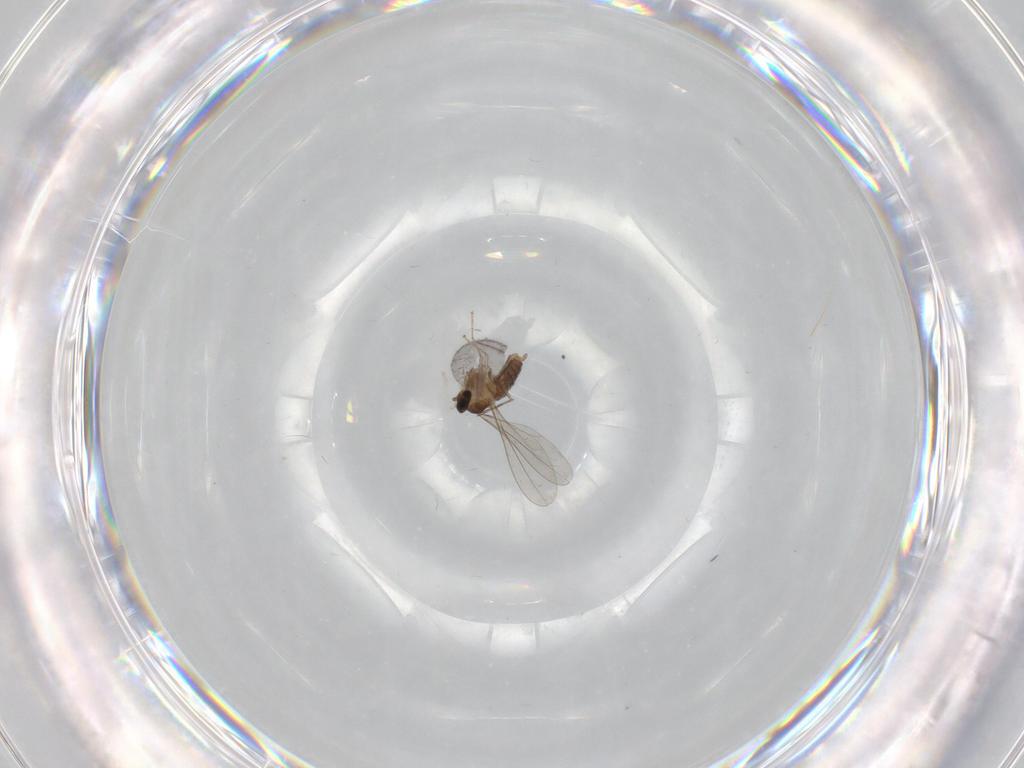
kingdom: Animalia
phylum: Arthropoda
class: Insecta
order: Diptera
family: Cecidomyiidae
